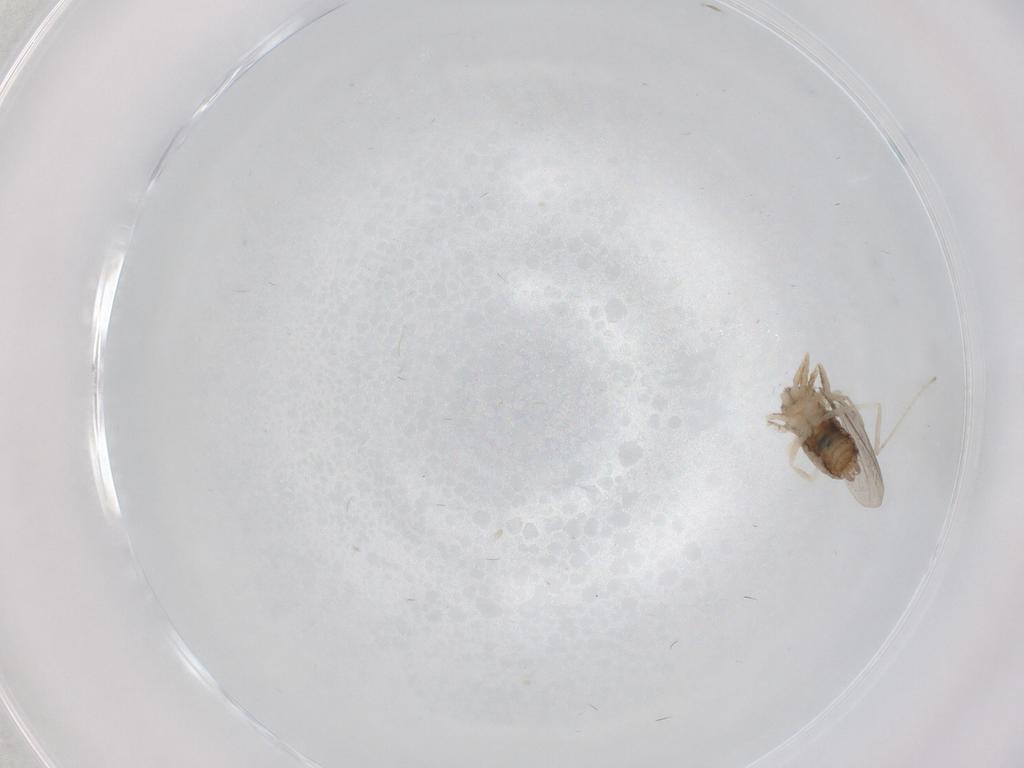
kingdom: Animalia
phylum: Arthropoda
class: Insecta
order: Diptera
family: Cecidomyiidae
